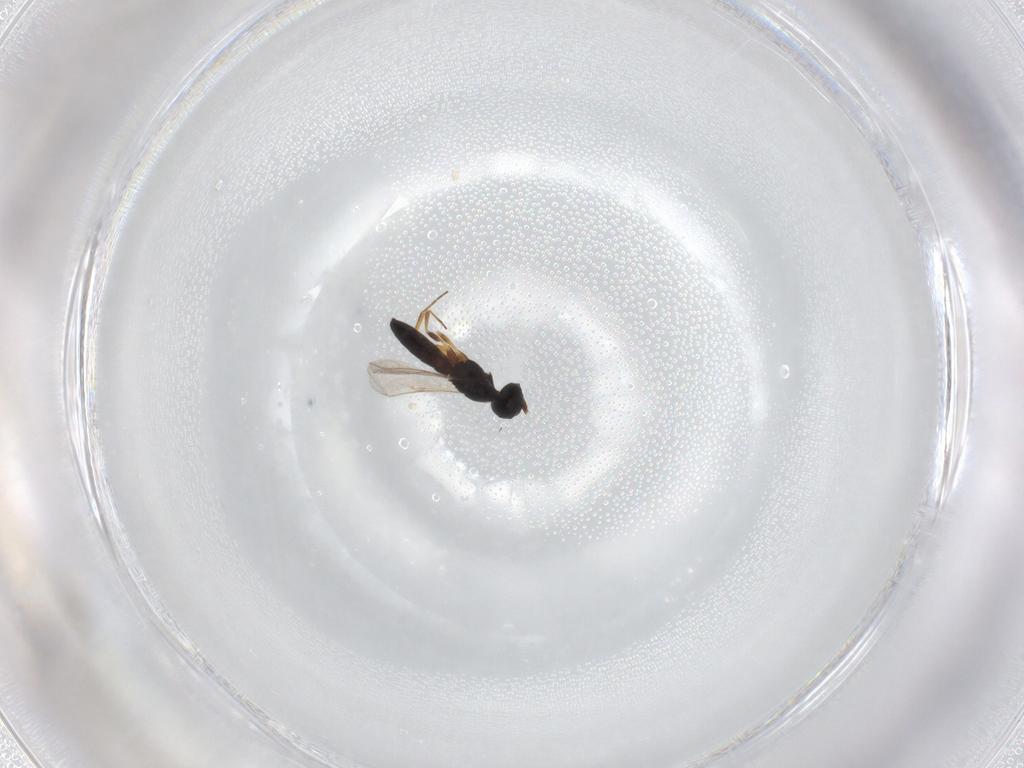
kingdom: Animalia
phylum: Arthropoda
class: Insecta
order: Hymenoptera
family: Scelionidae
